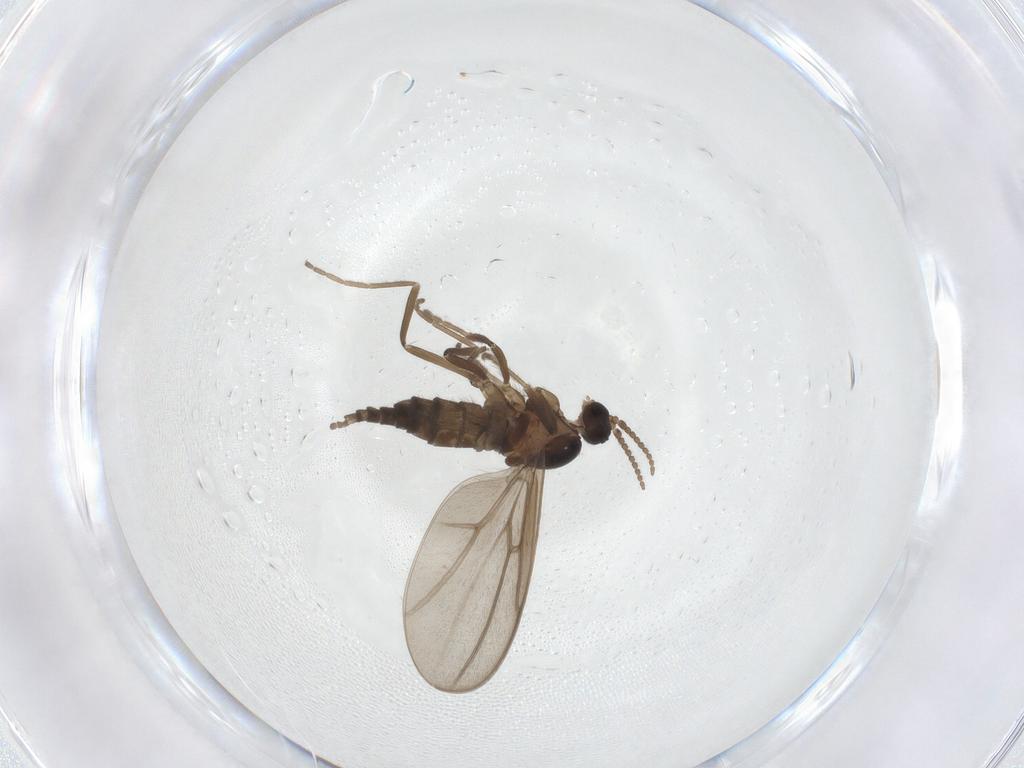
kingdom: Animalia
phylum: Arthropoda
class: Insecta
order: Diptera
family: Cecidomyiidae
